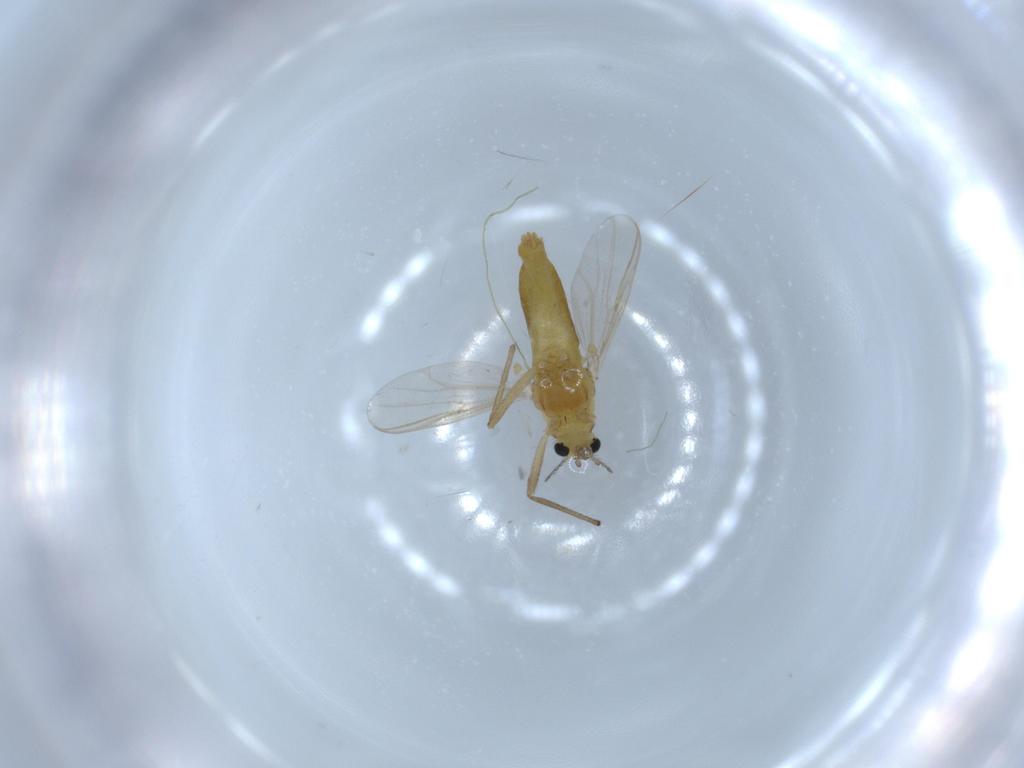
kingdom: Animalia
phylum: Arthropoda
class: Insecta
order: Diptera
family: Chironomidae
